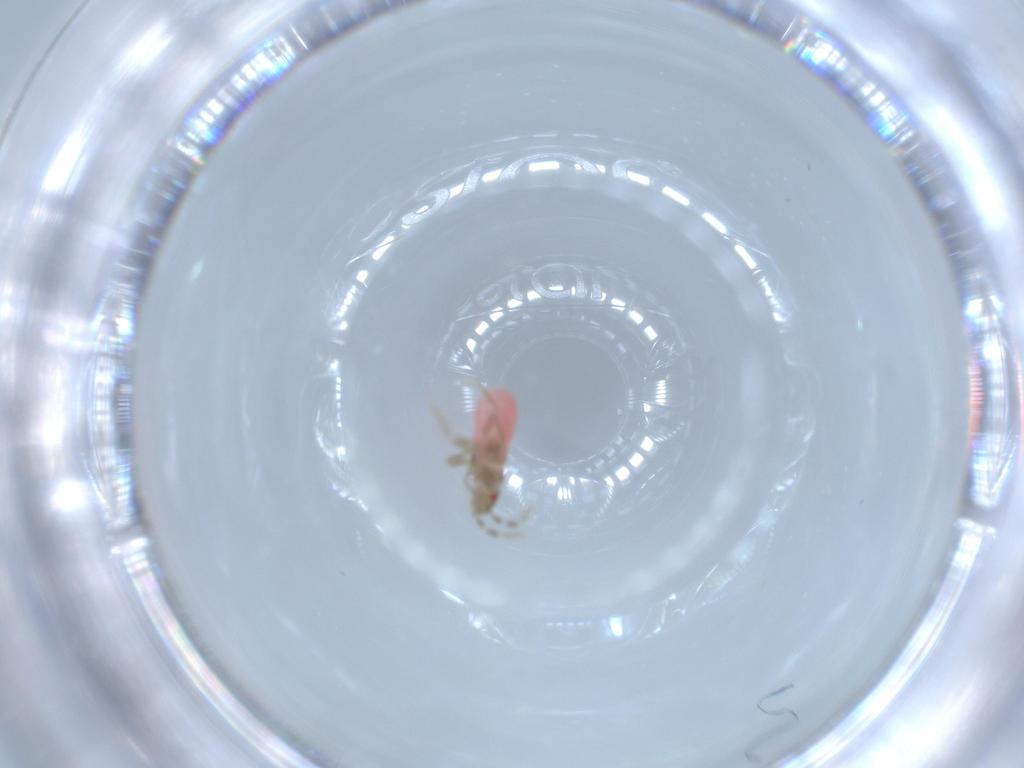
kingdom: Animalia
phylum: Arthropoda
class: Insecta
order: Hemiptera
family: Rhyparochromidae
